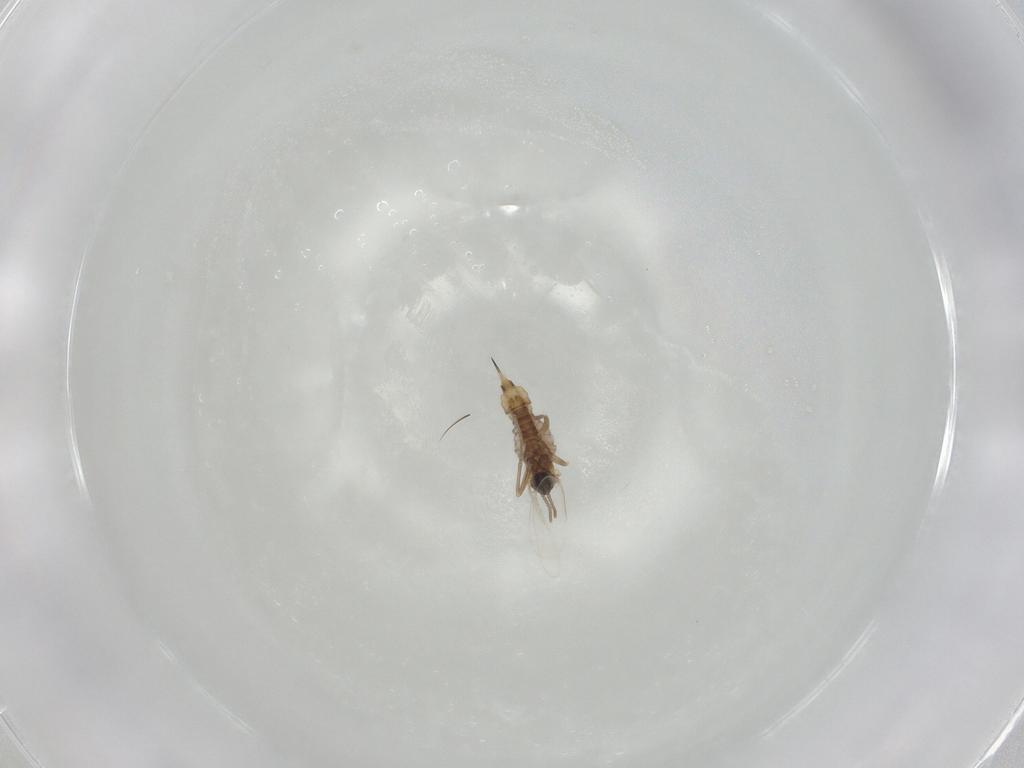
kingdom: Animalia
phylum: Arthropoda
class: Insecta
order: Diptera
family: Cecidomyiidae
